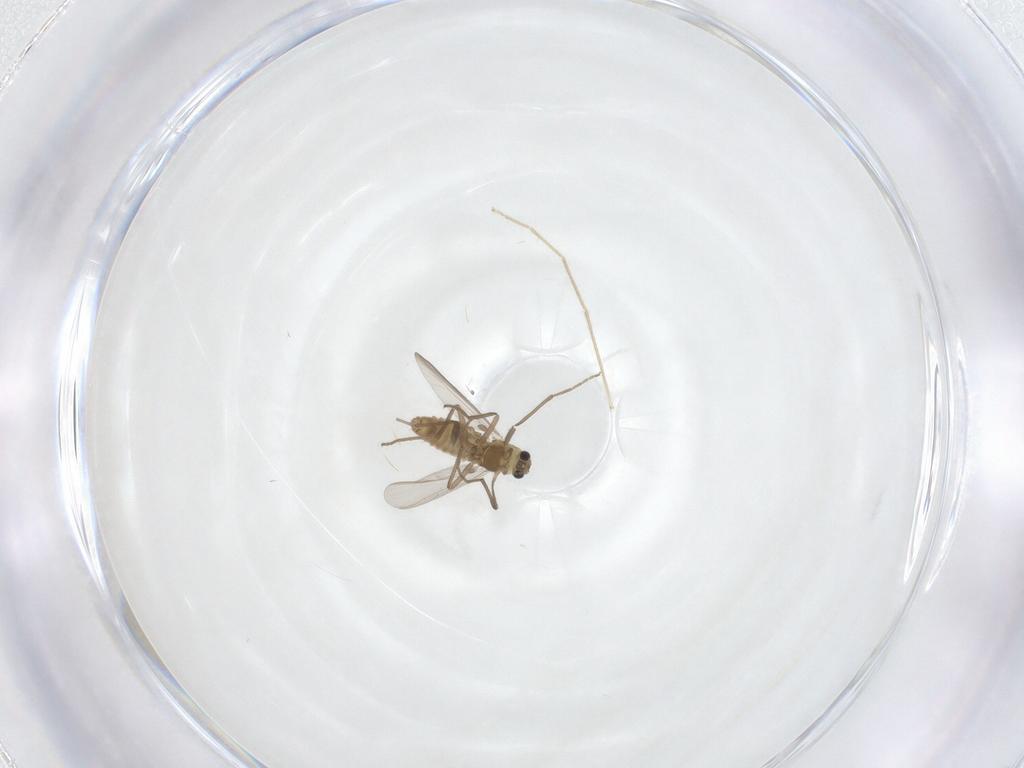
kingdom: Animalia
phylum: Arthropoda
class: Insecta
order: Diptera
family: Chironomidae
